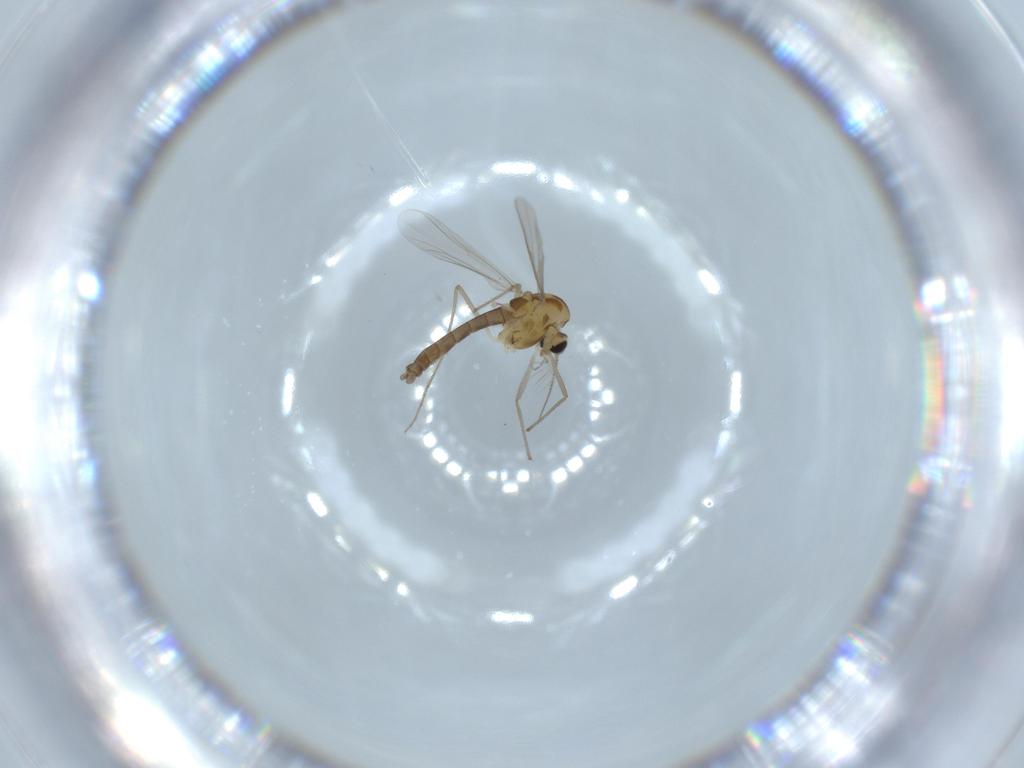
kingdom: Animalia
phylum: Arthropoda
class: Insecta
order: Diptera
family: Chironomidae
